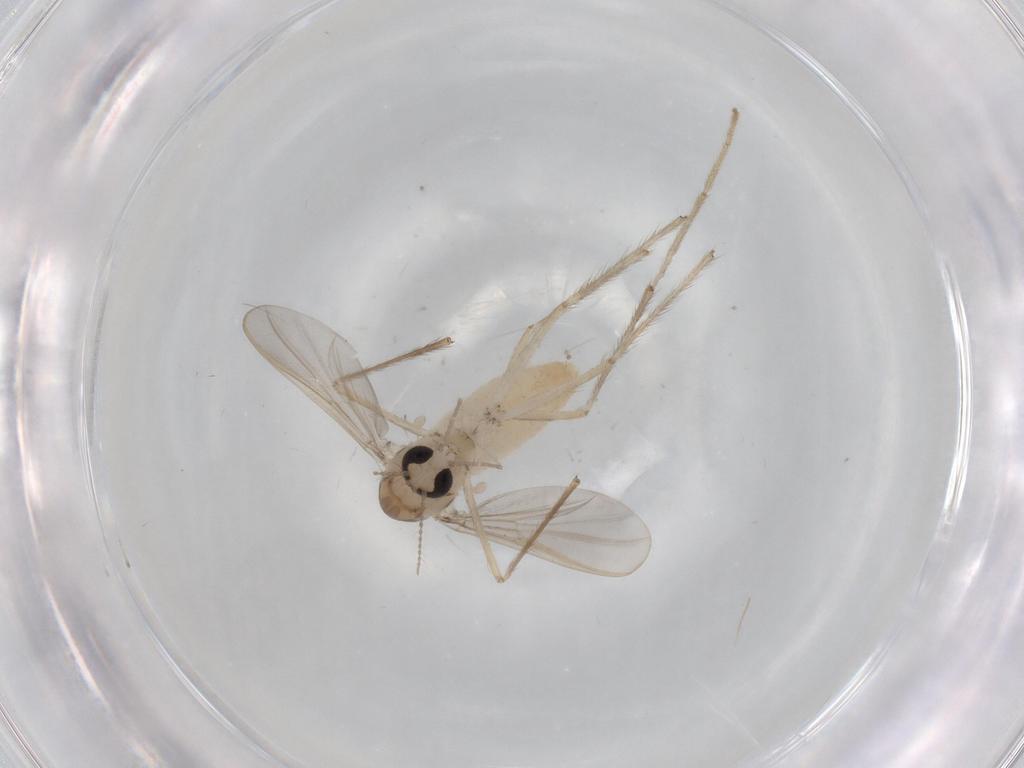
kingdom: Animalia
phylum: Arthropoda
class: Insecta
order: Diptera
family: Chironomidae
